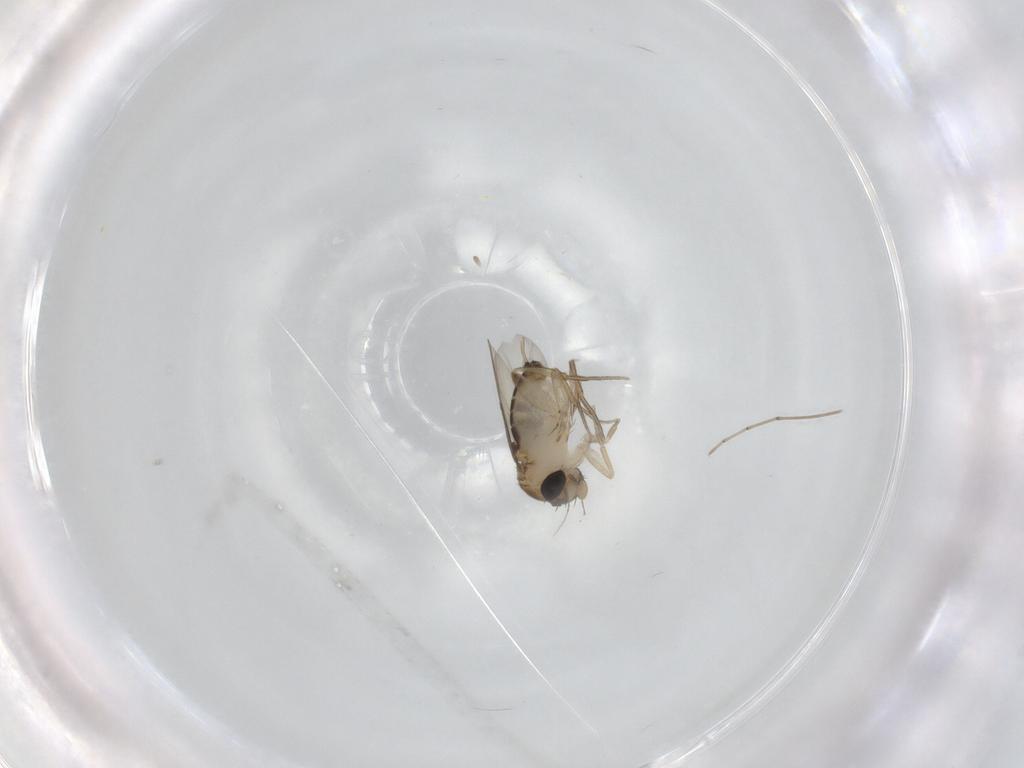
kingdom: Animalia
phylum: Arthropoda
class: Insecta
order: Diptera
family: Phoridae
